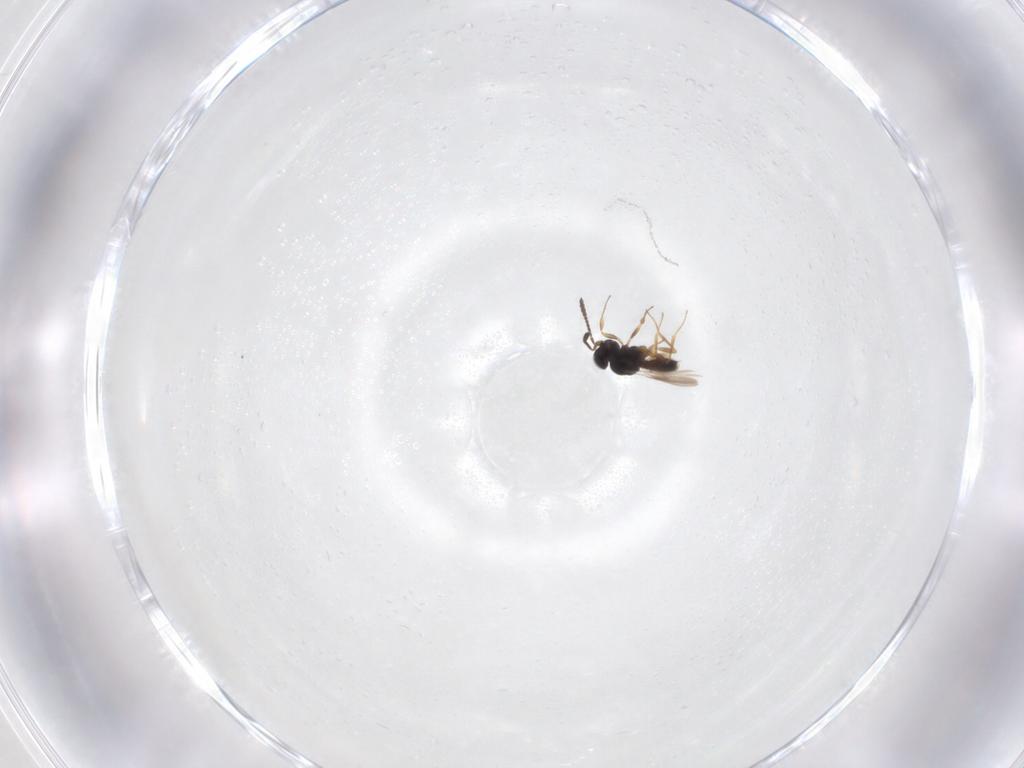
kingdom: Animalia
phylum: Arthropoda
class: Insecta
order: Hymenoptera
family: Scelionidae
